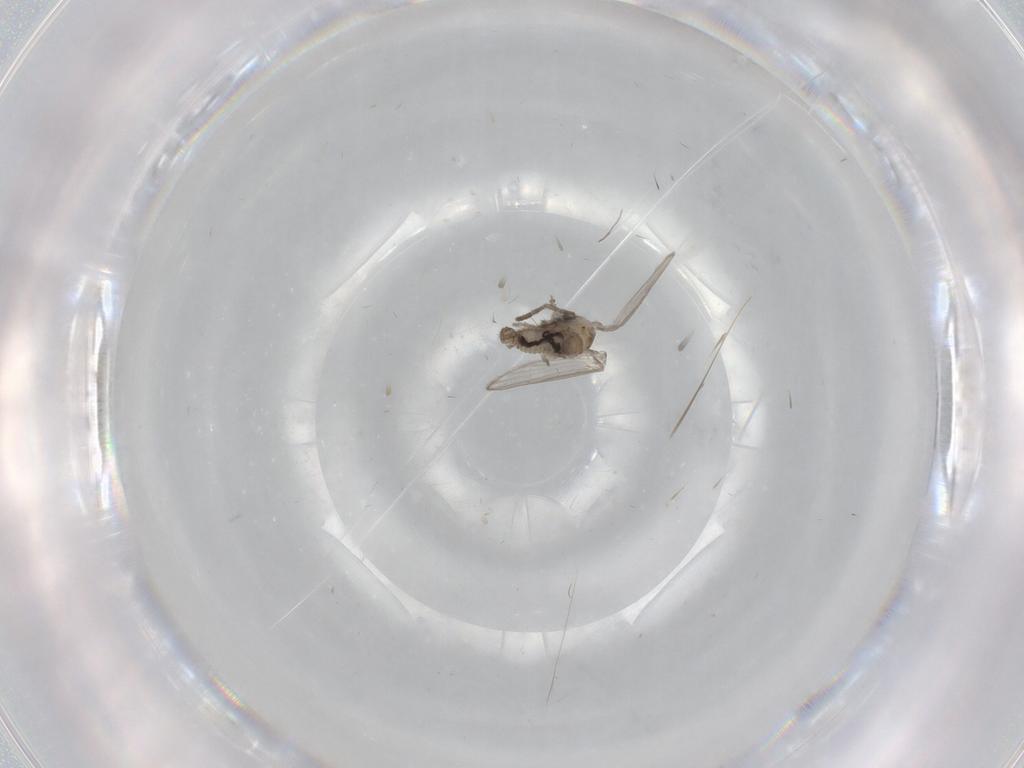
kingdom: Animalia
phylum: Arthropoda
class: Insecta
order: Diptera
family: Psychodidae
